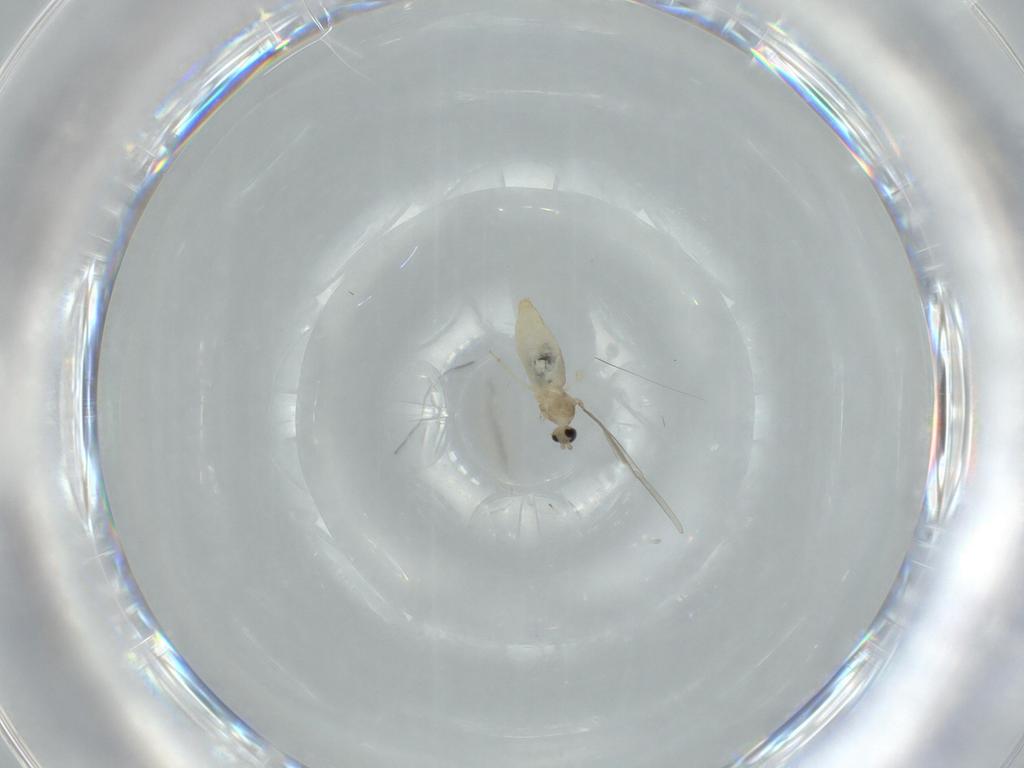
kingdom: Animalia
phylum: Arthropoda
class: Insecta
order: Diptera
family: Cecidomyiidae
